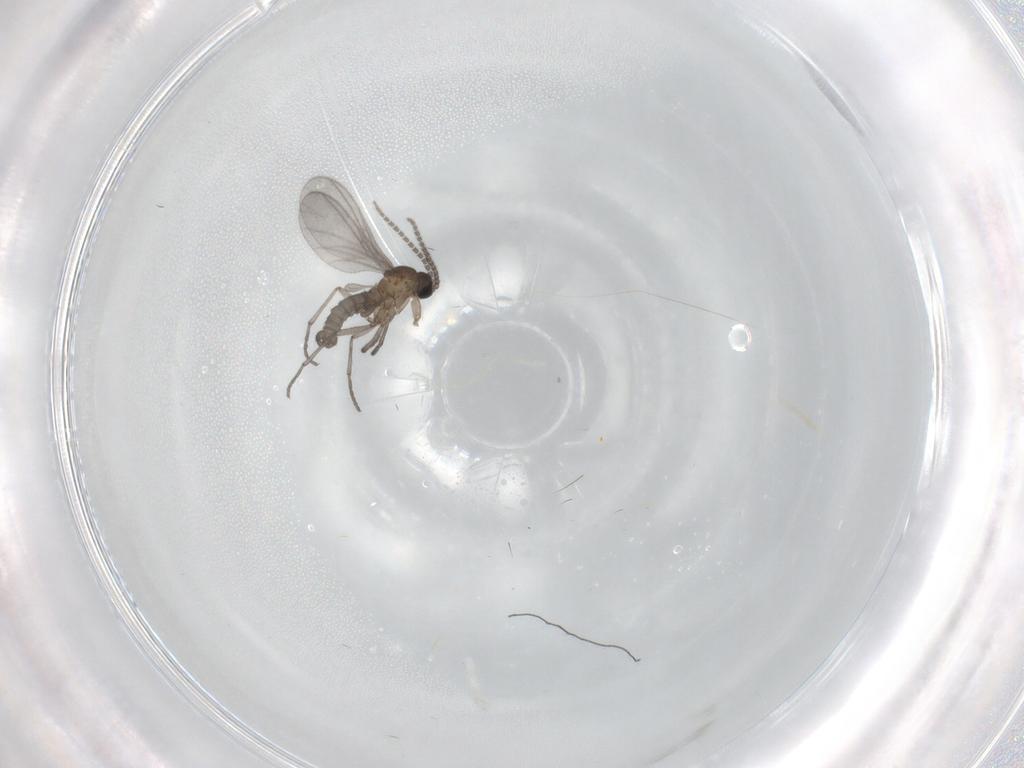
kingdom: Animalia
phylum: Arthropoda
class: Insecta
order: Diptera
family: Sciaridae
